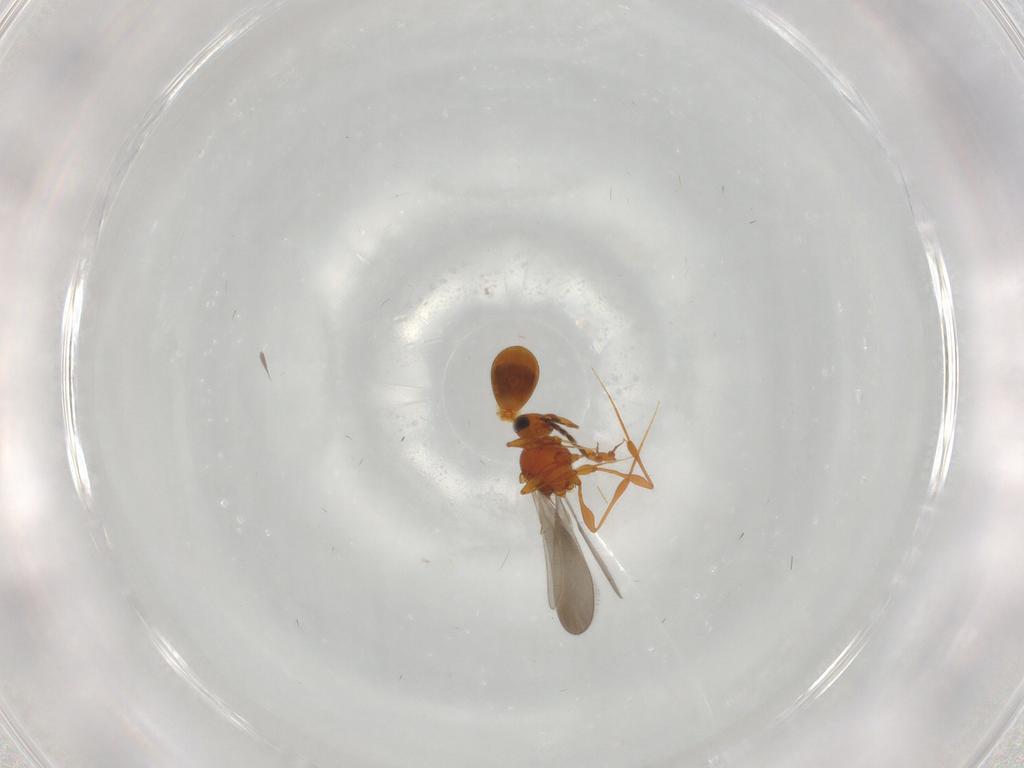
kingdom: Animalia
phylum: Arthropoda
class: Insecta
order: Hymenoptera
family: Platygastridae
